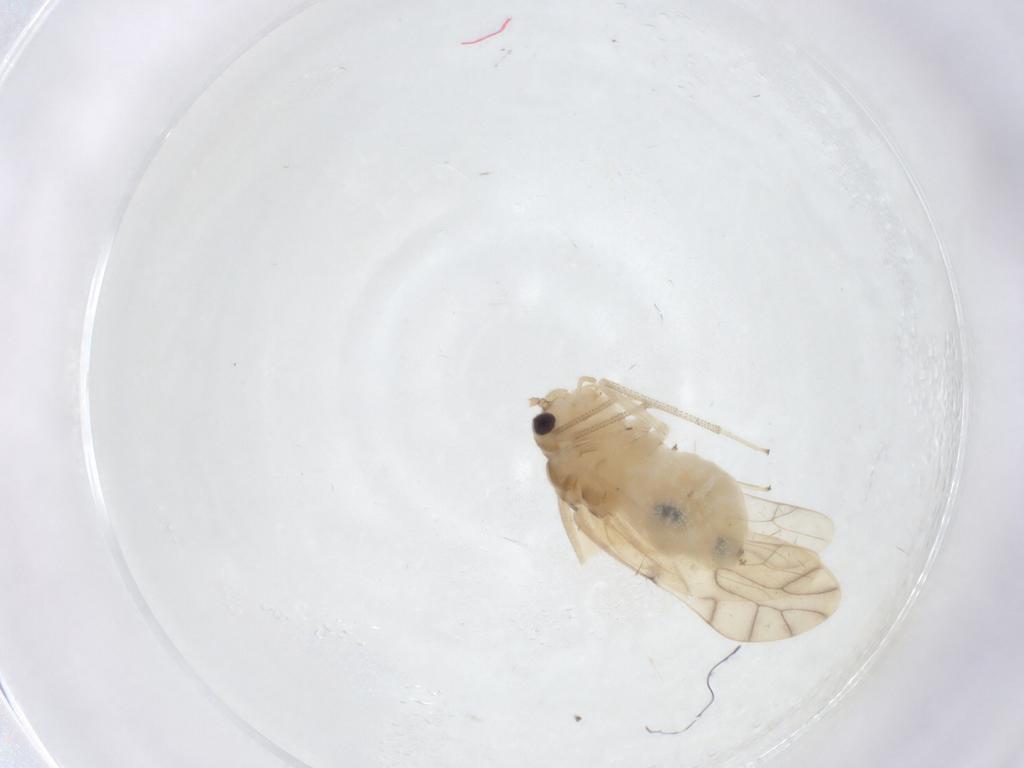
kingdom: Animalia
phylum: Arthropoda
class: Insecta
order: Psocodea
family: Caeciliusidae
